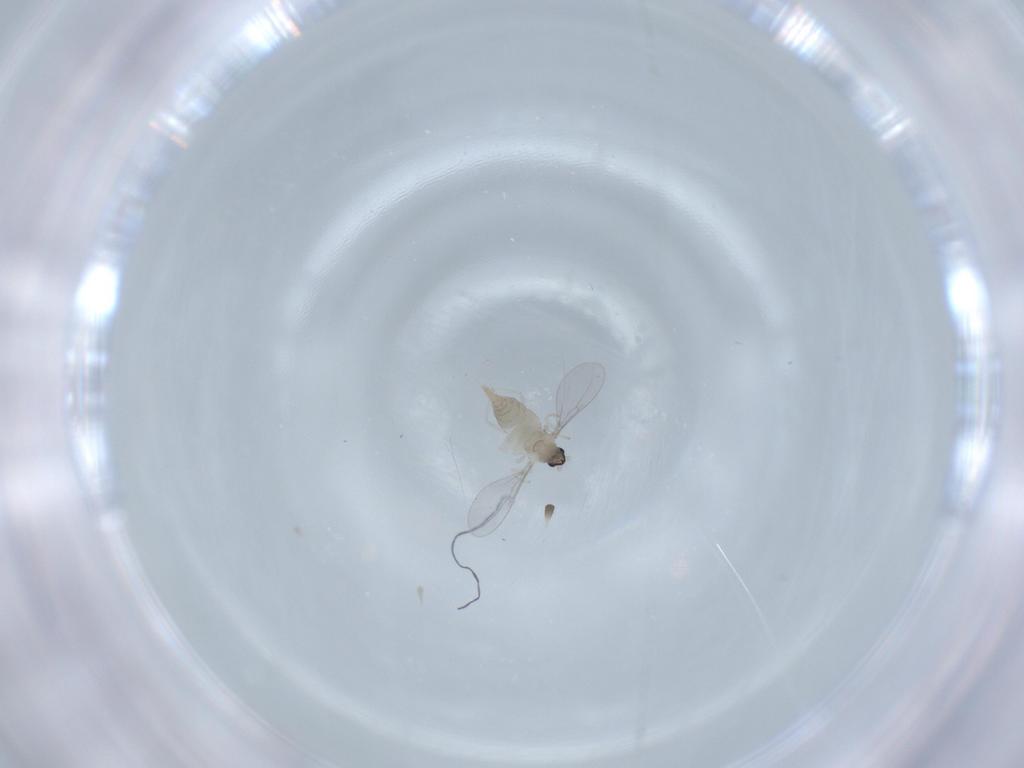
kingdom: Animalia
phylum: Arthropoda
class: Insecta
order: Diptera
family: Cecidomyiidae
